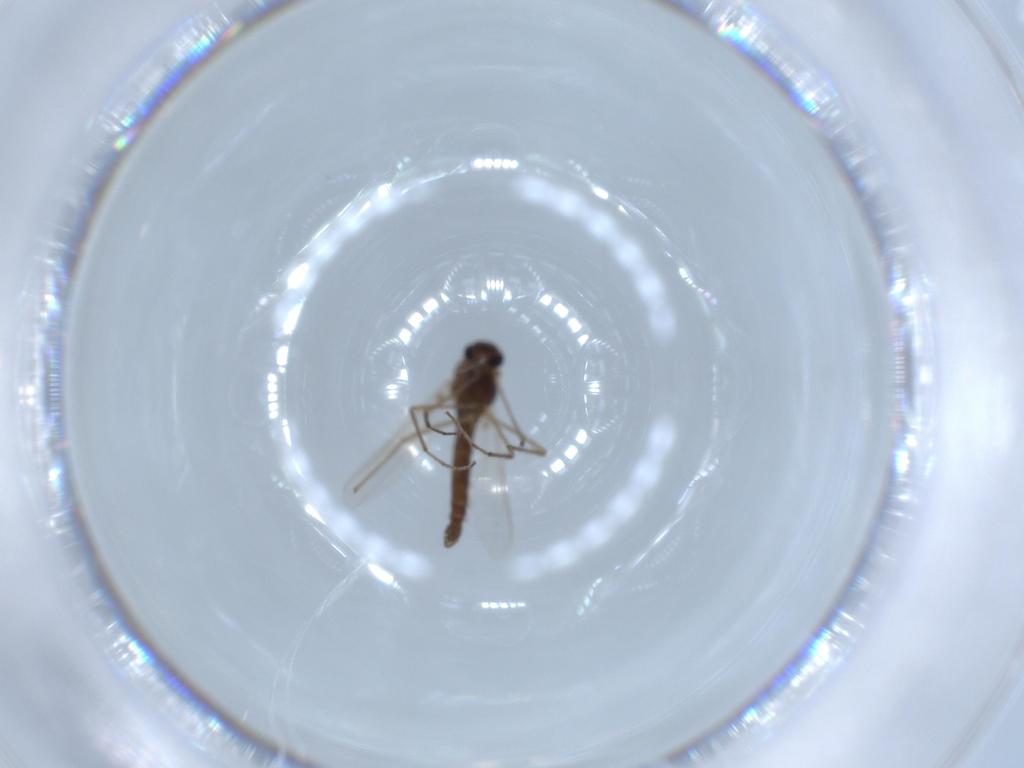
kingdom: Animalia
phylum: Arthropoda
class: Insecta
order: Diptera
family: Chironomidae
